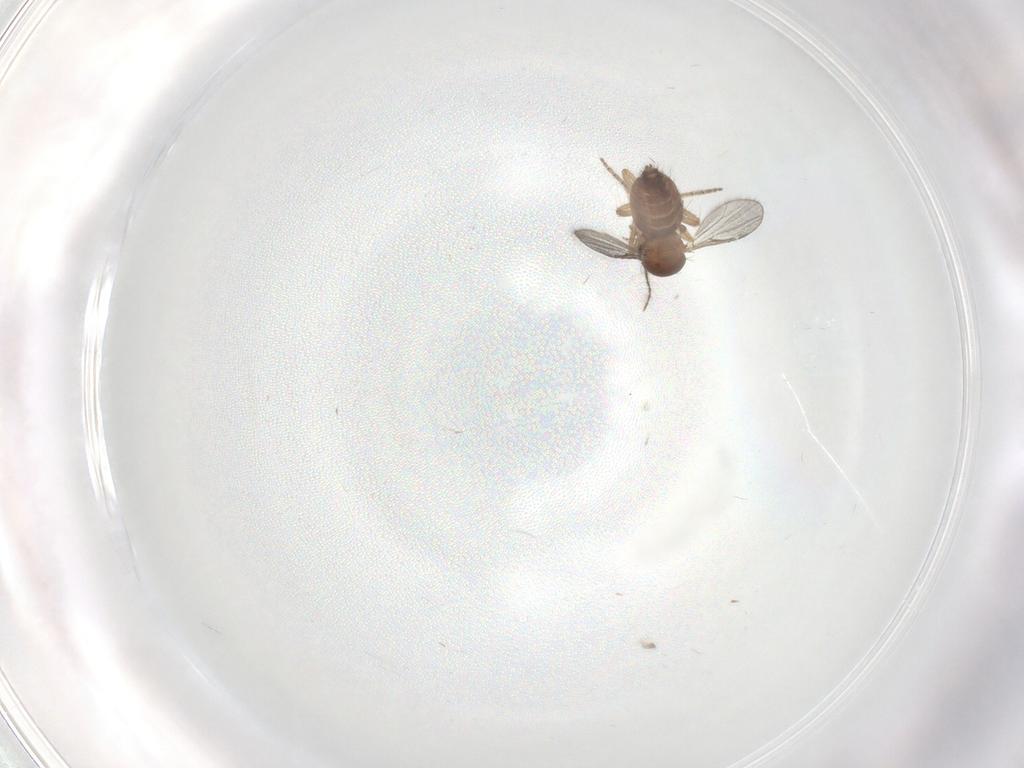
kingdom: Animalia
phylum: Arthropoda
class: Insecta
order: Diptera
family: Ceratopogonidae
